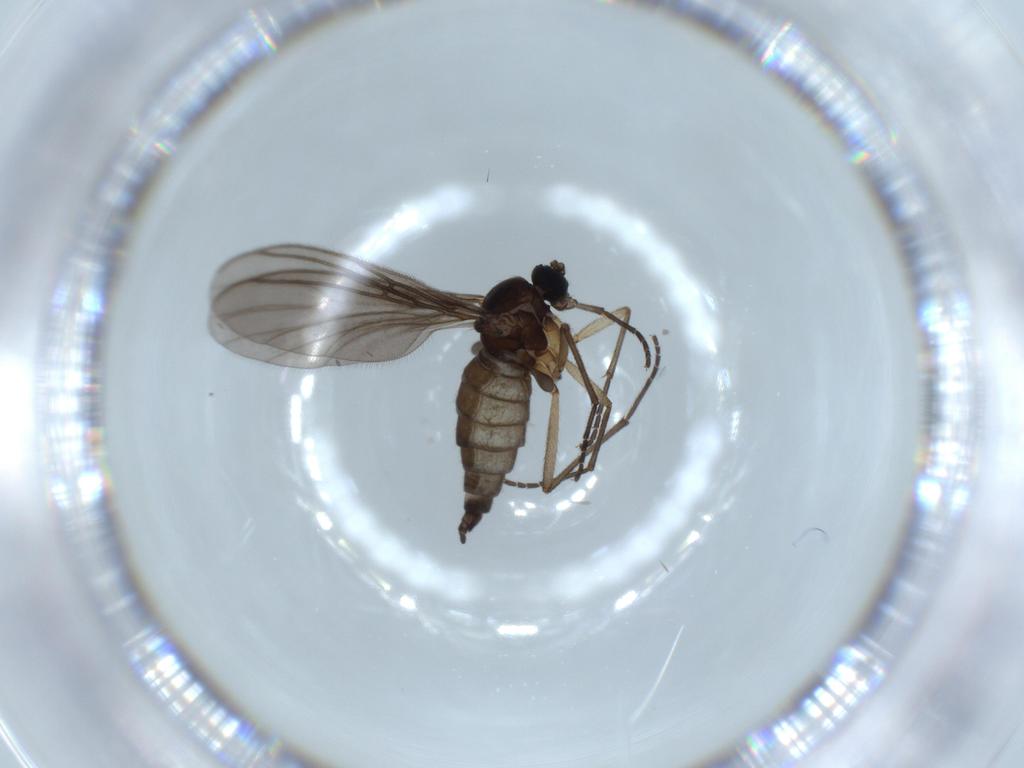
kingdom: Animalia
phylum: Arthropoda
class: Insecta
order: Diptera
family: Sciaridae
